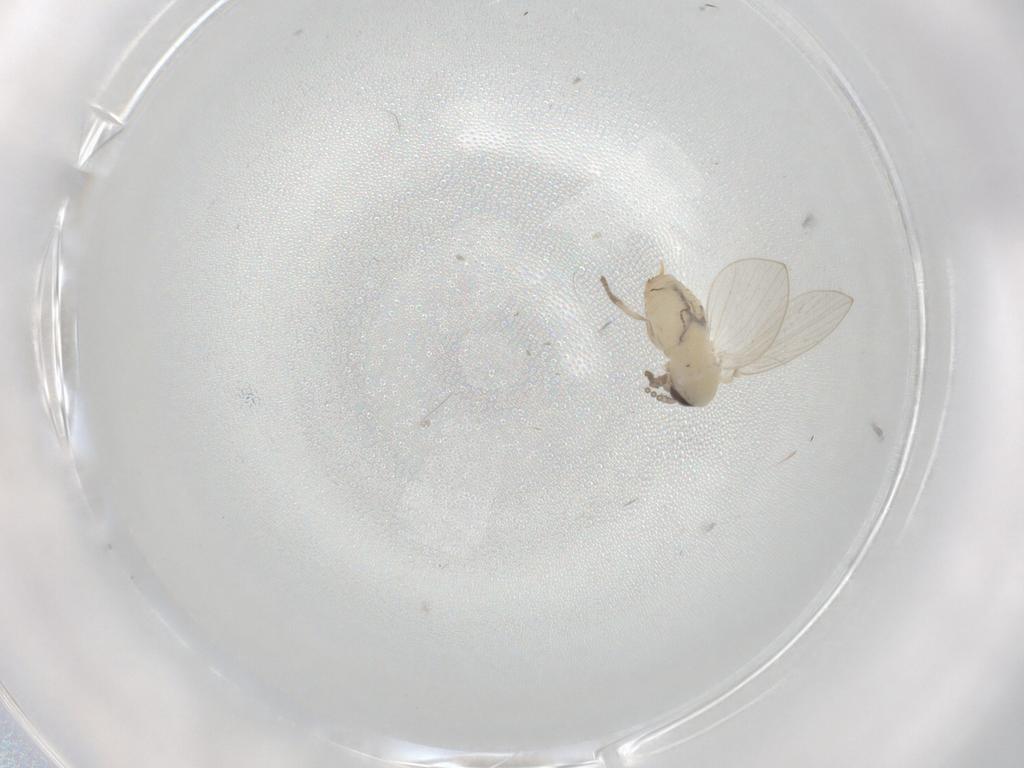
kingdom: Animalia
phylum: Arthropoda
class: Insecta
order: Diptera
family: Psychodidae
